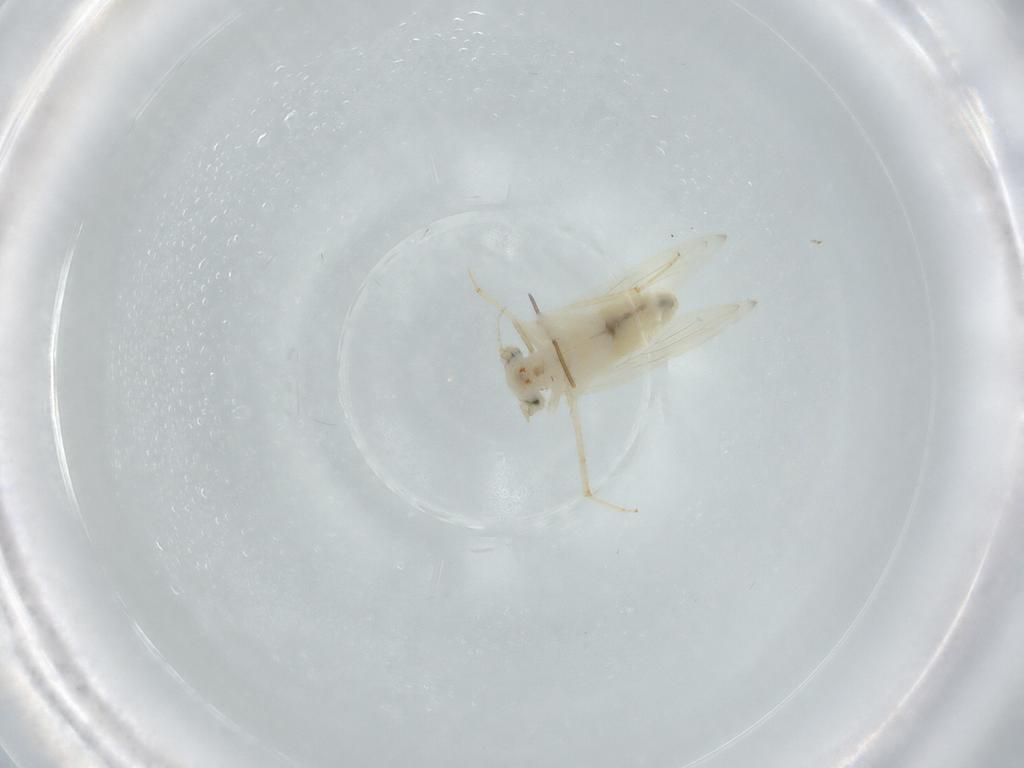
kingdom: Animalia
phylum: Arthropoda
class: Insecta
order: Psocodea
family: Lepidopsocidae
